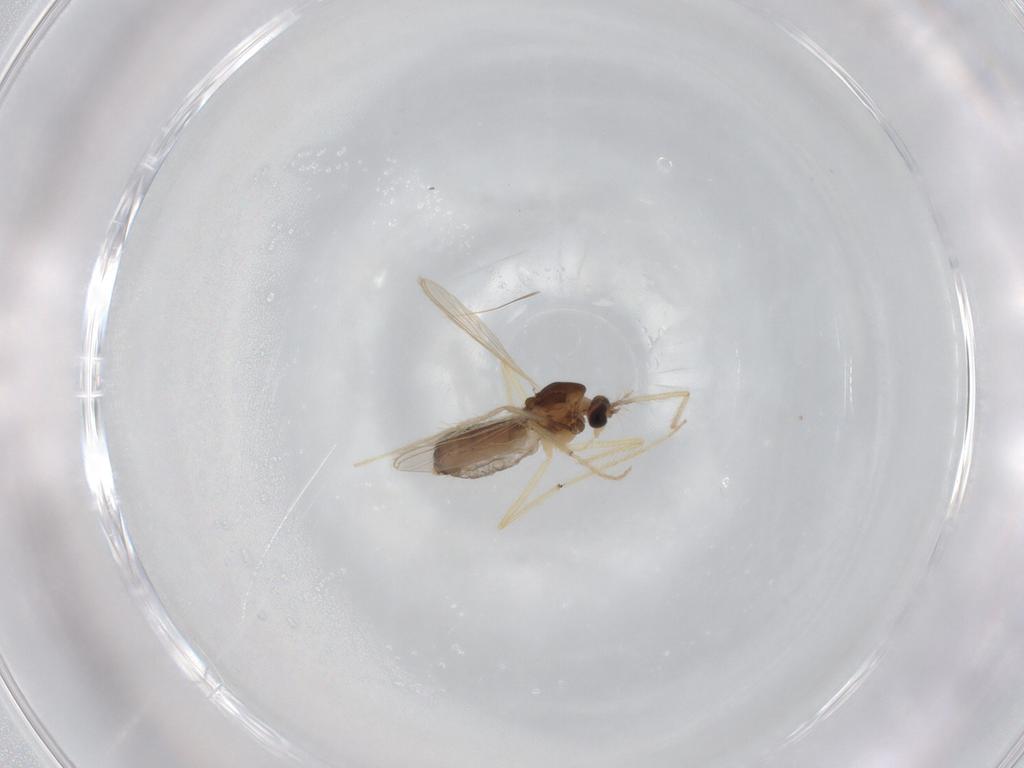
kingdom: Animalia
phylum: Arthropoda
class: Insecta
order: Diptera
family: Chironomidae
